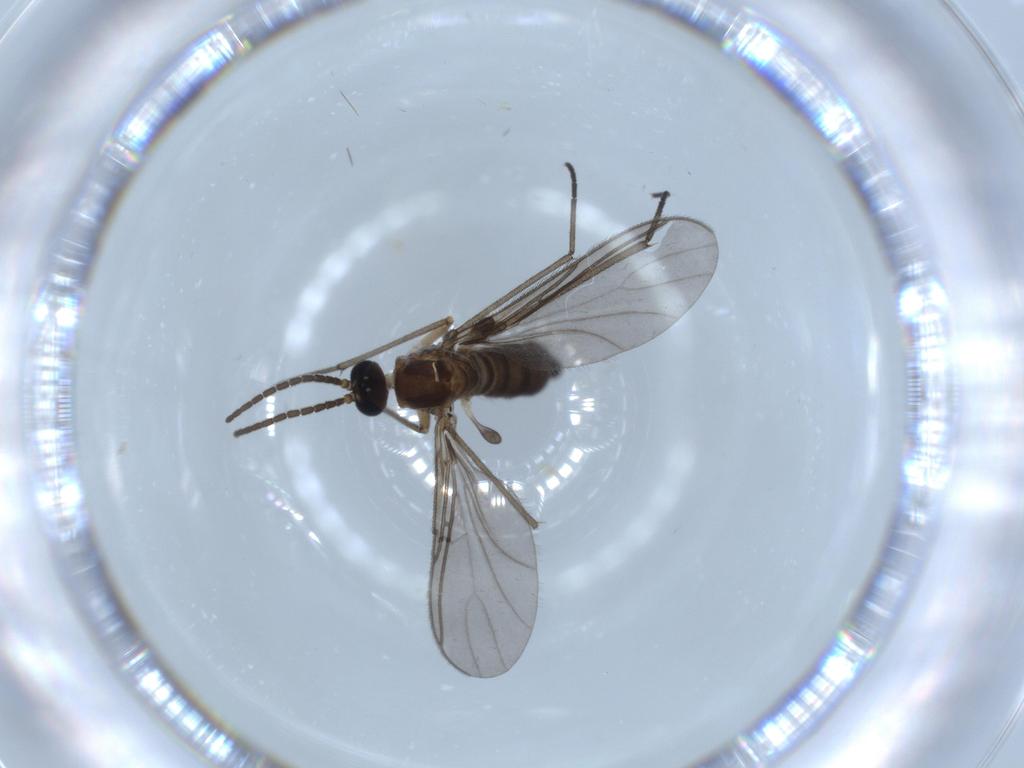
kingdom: Animalia
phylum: Arthropoda
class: Insecta
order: Diptera
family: Sciaridae
